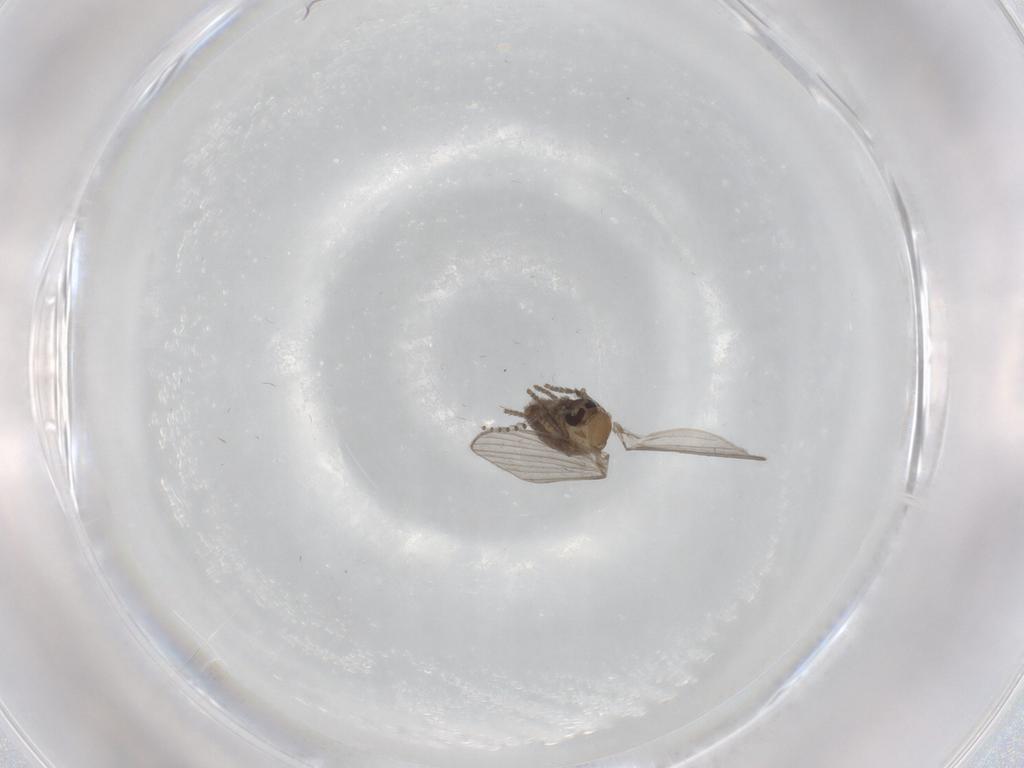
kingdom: Animalia
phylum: Arthropoda
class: Insecta
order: Diptera
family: Psychodidae
